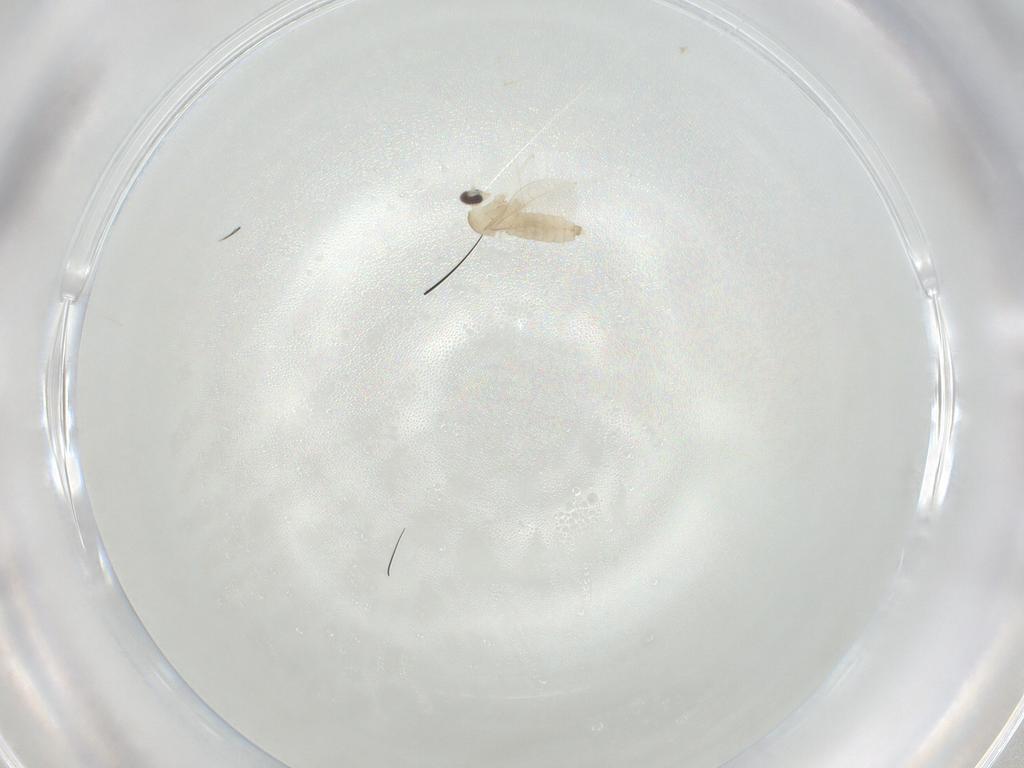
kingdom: Animalia
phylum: Arthropoda
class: Insecta
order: Diptera
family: Cecidomyiidae
